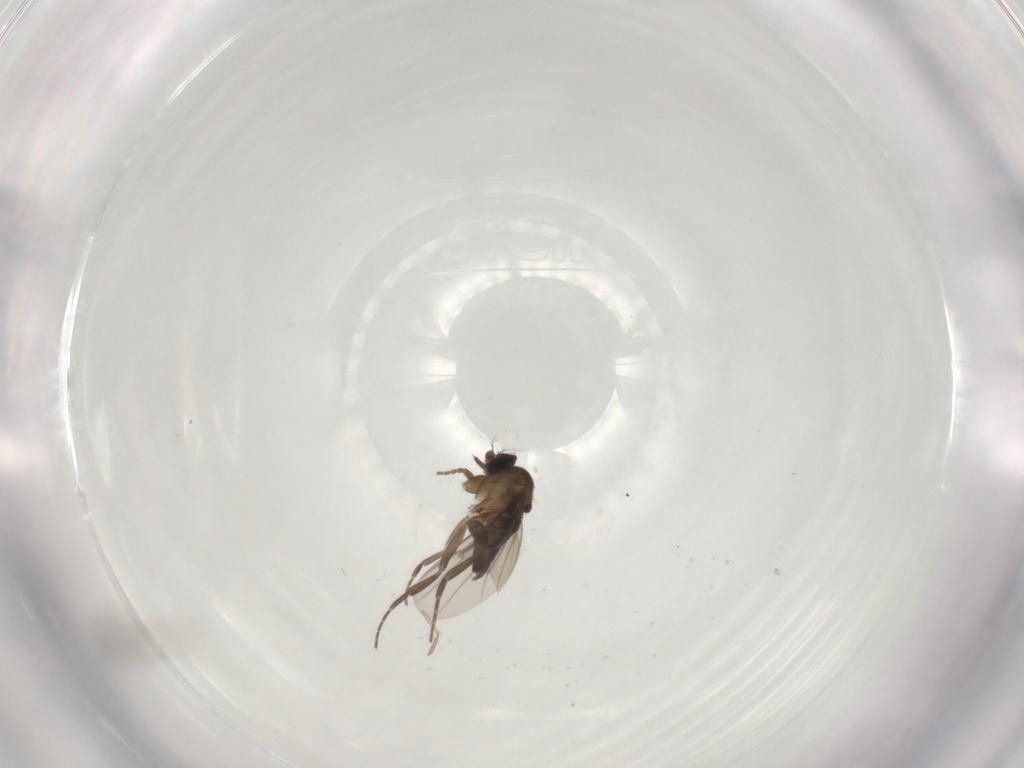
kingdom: Animalia
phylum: Arthropoda
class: Insecta
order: Diptera
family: Phoridae
